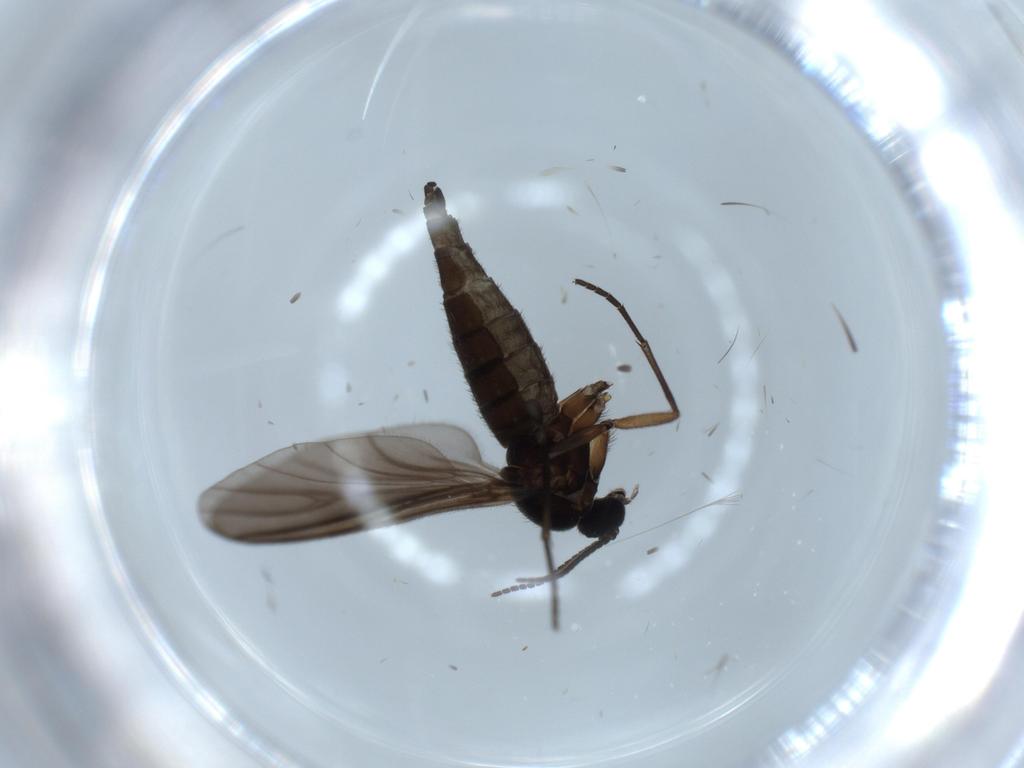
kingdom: Animalia
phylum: Arthropoda
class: Insecta
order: Diptera
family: Sciaridae
